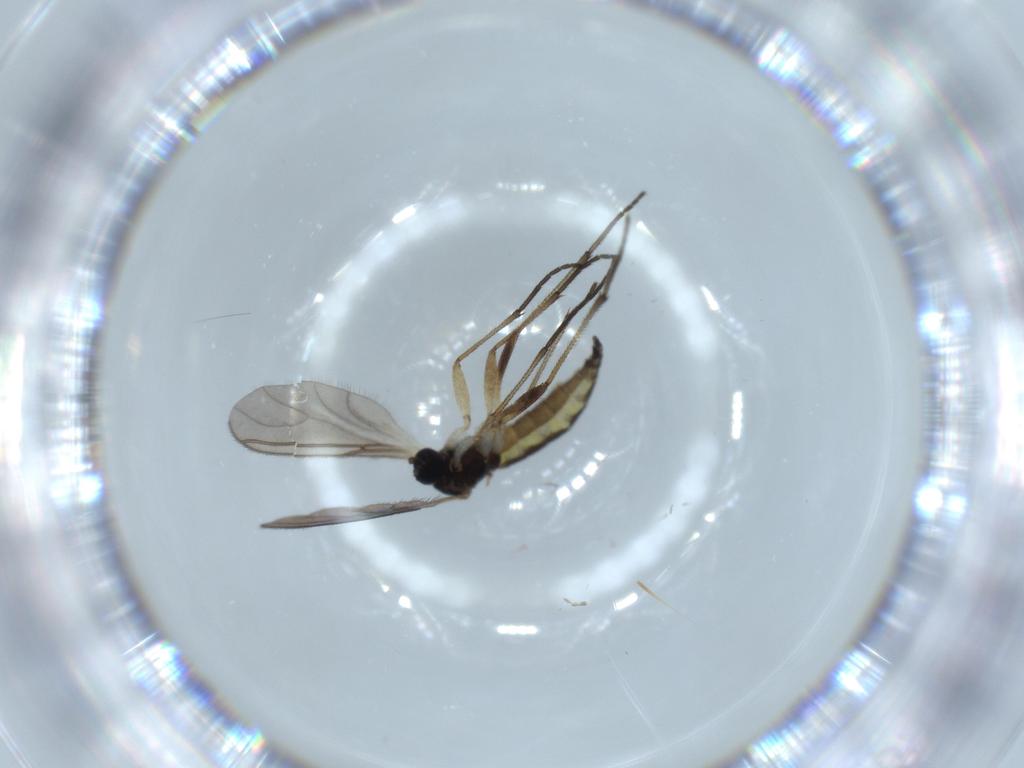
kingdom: Animalia
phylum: Arthropoda
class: Insecta
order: Diptera
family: Sciaridae
